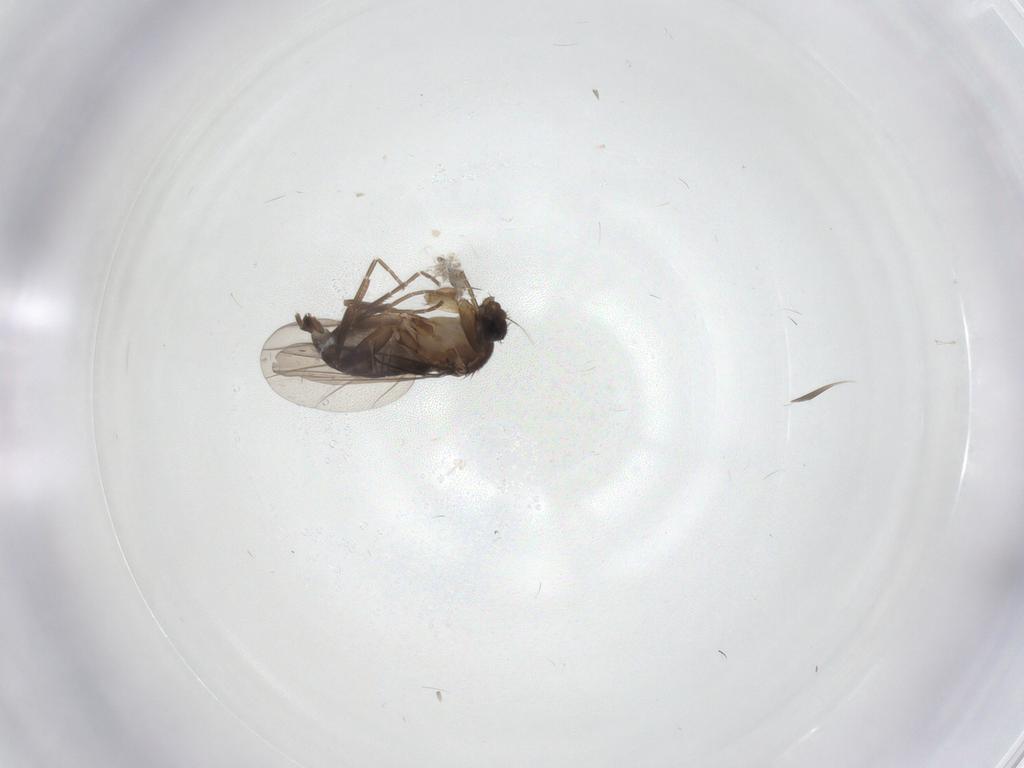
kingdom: Animalia
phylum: Arthropoda
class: Insecta
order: Diptera
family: Phoridae
